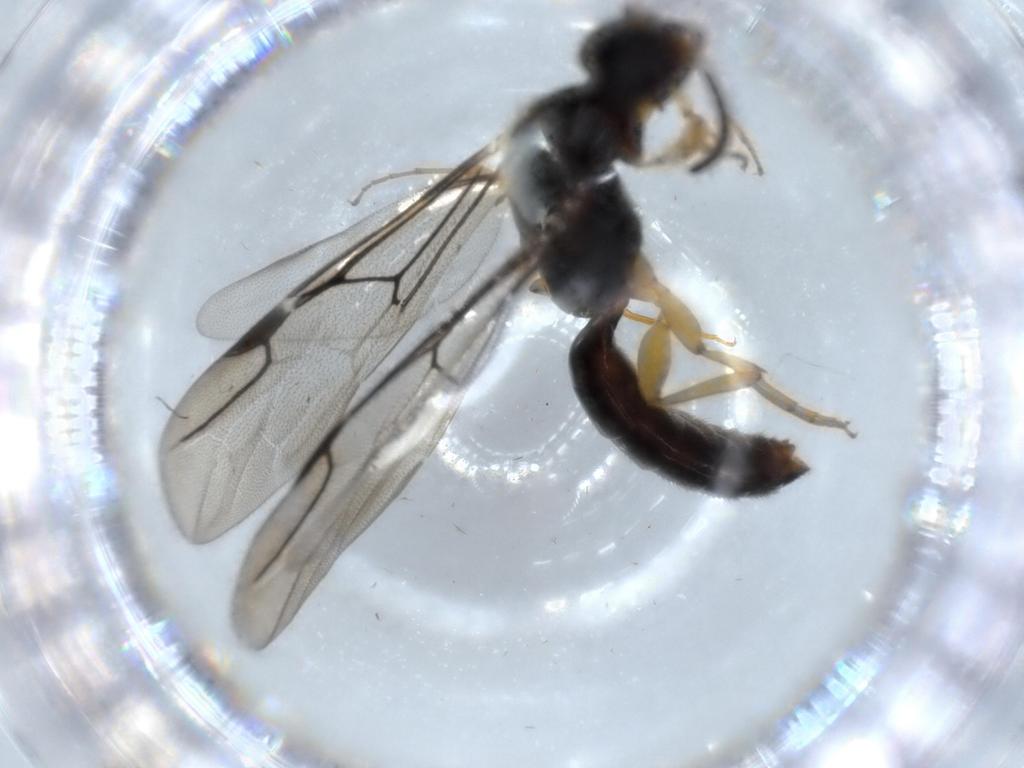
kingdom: Animalia
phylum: Arthropoda
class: Insecta
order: Hymenoptera
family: Bethylidae
